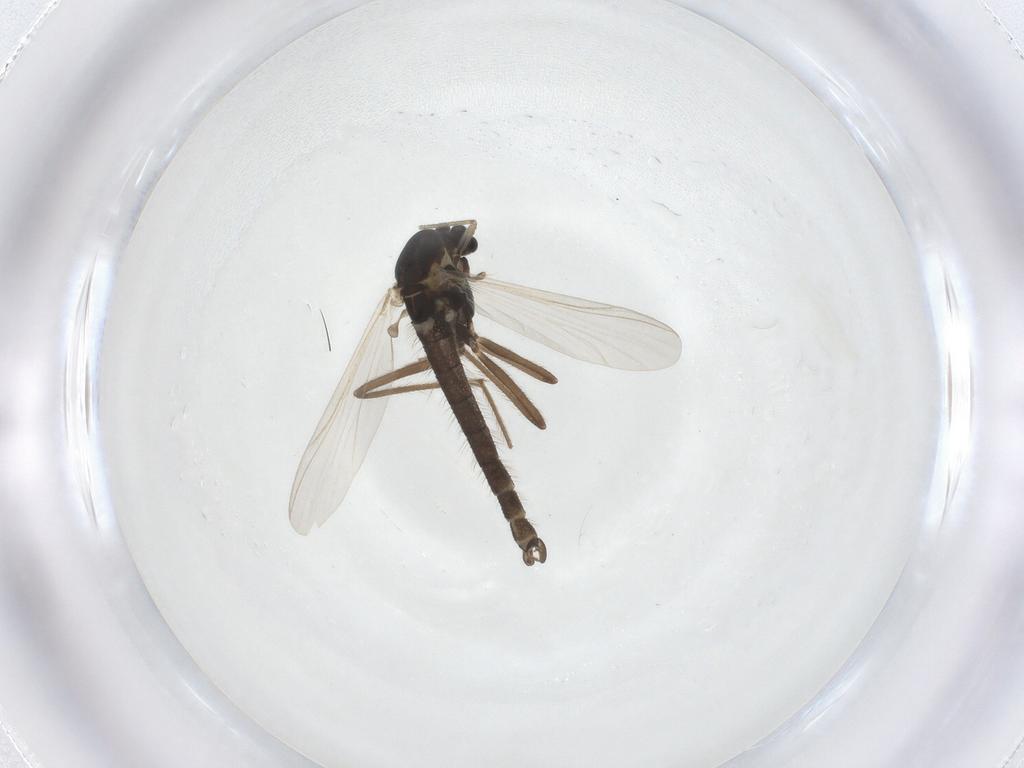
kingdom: Animalia
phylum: Arthropoda
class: Insecta
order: Diptera
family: Chironomidae
